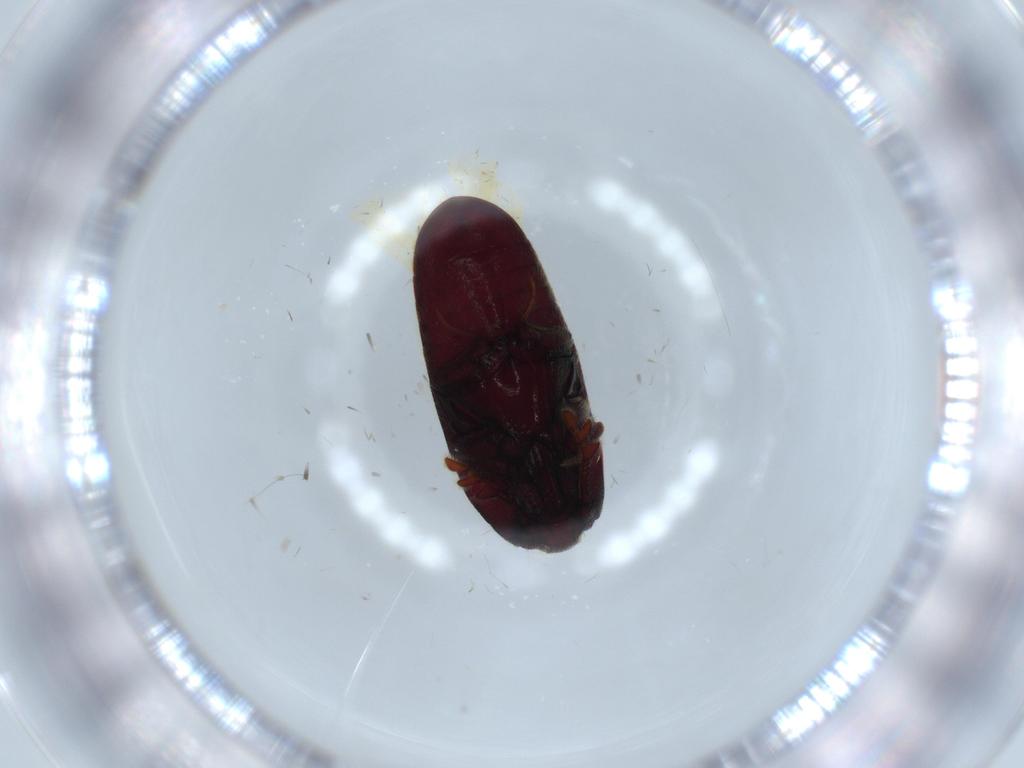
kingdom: Animalia
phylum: Arthropoda
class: Insecta
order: Coleoptera
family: Throscidae
